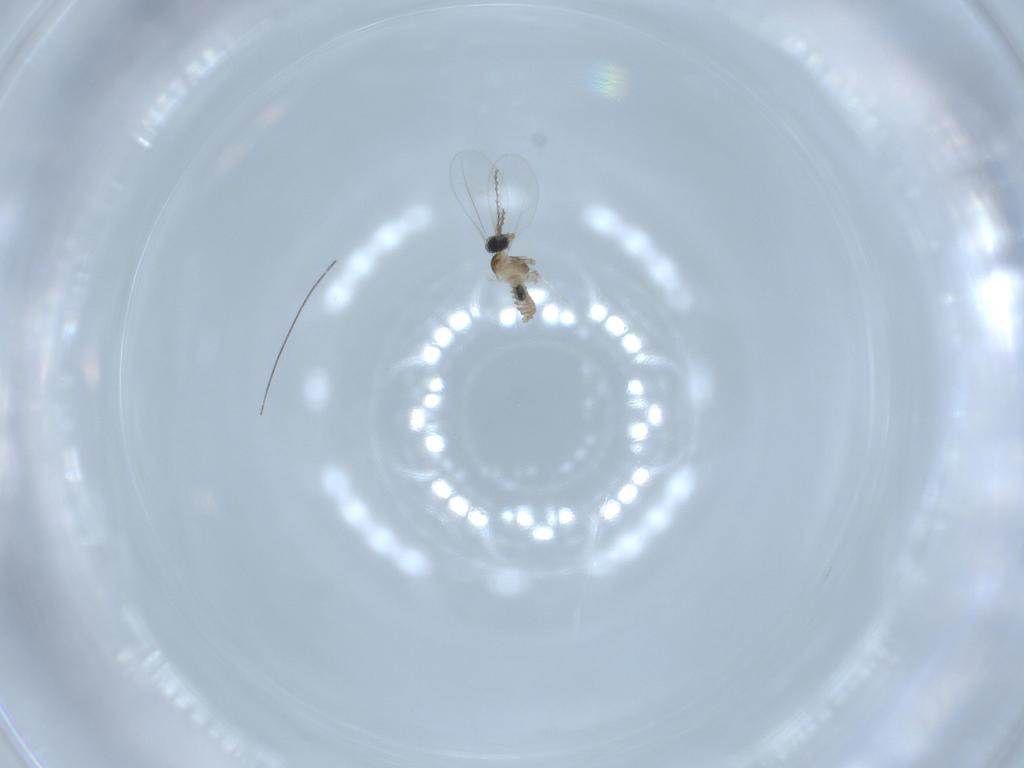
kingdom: Animalia
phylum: Arthropoda
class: Insecta
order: Diptera
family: Cecidomyiidae
